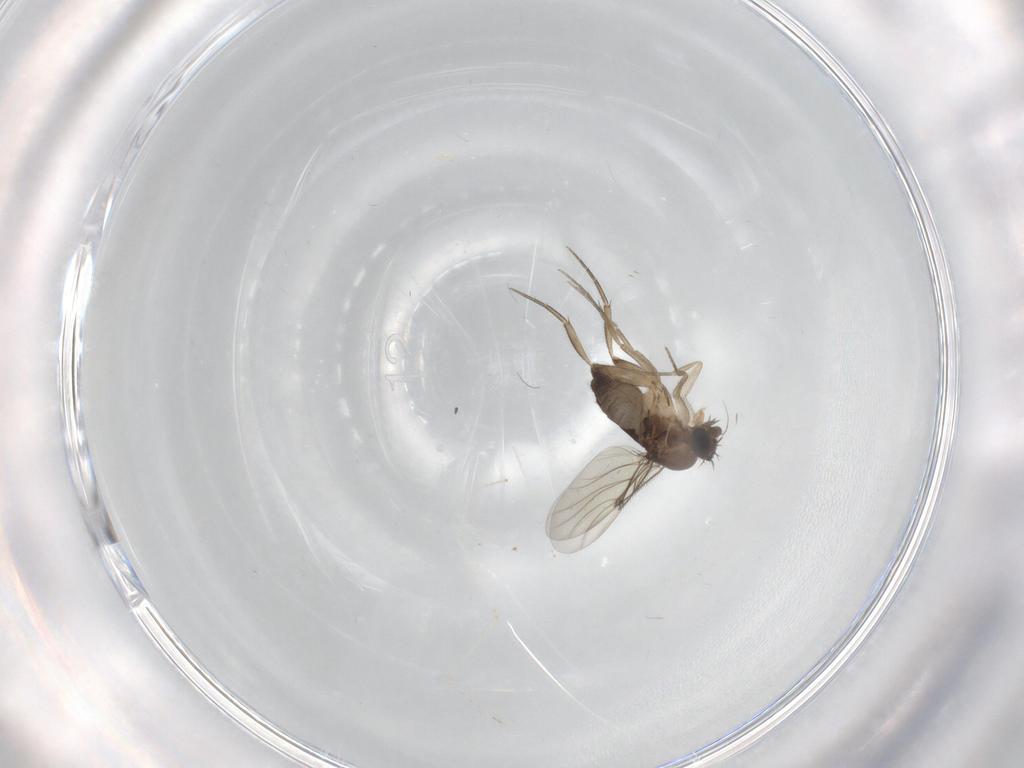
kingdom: Animalia
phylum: Arthropoda
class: Insecta
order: Diptera
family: Phoridae
